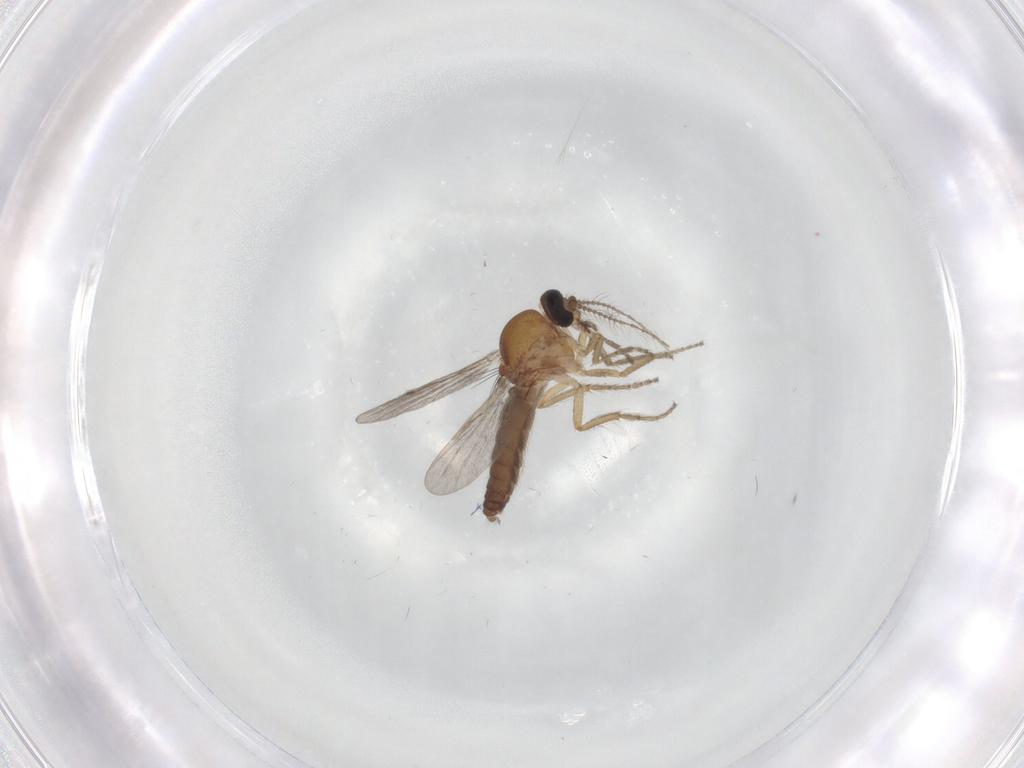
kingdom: Animalia
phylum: Arthropoda
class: Insecta
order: Diptera
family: Ceratopogonidae
